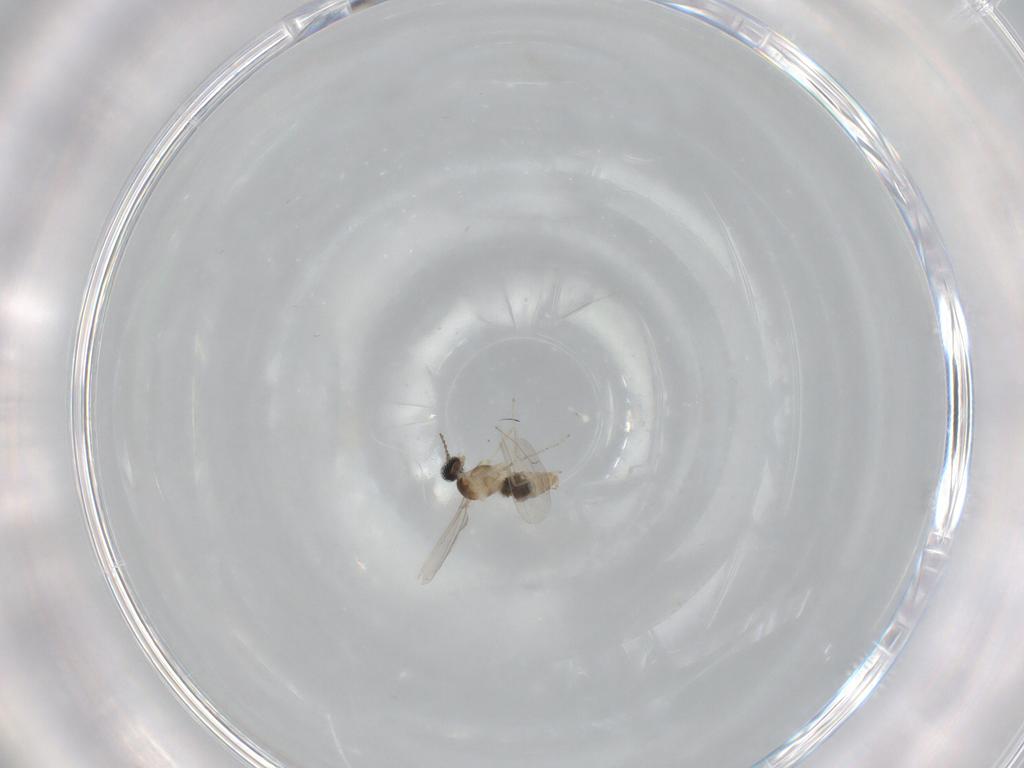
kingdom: Animalia
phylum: Arthropoda
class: Insecta
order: Diptera
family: Cecidomyiidae
